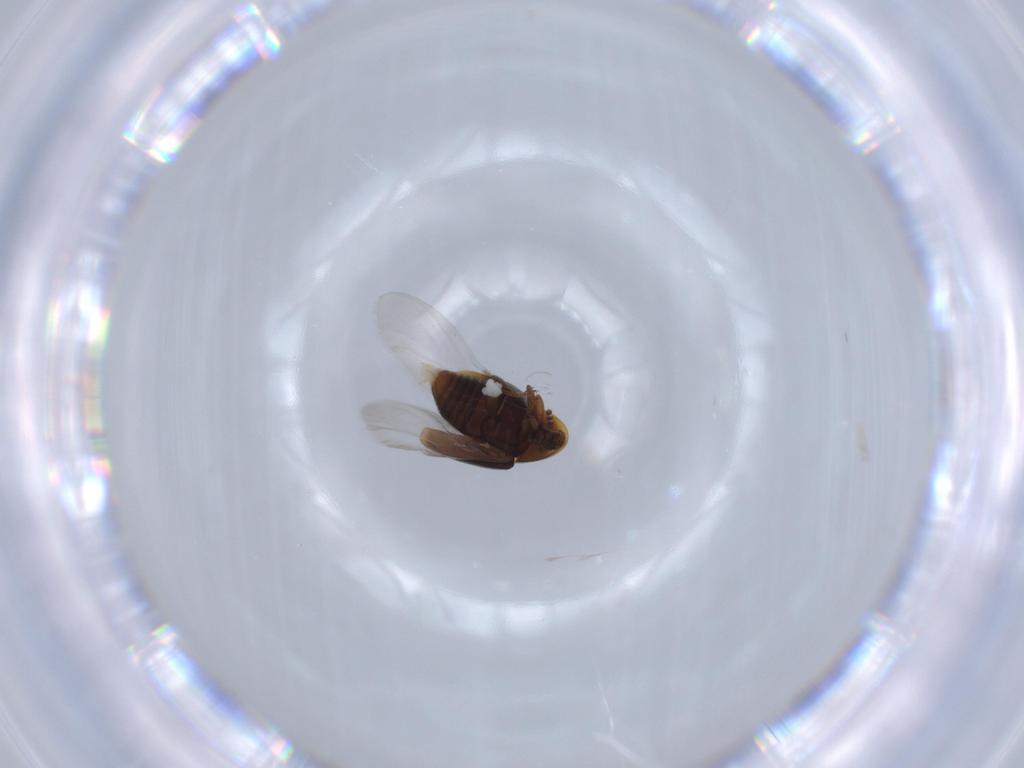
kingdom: Animalia
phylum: Arthropoda
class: Insecta
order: Coleoptera
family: Corylophidae
